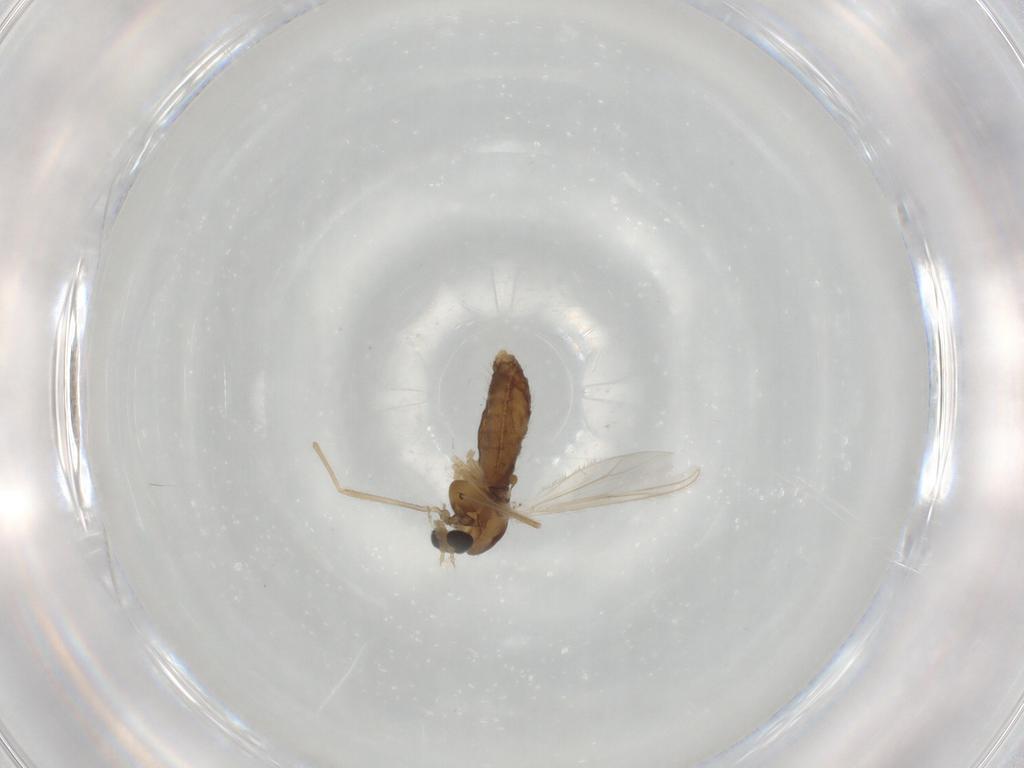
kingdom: Animalia
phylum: Arthropoda
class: Insecta
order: Diptera
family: Chironomidae
